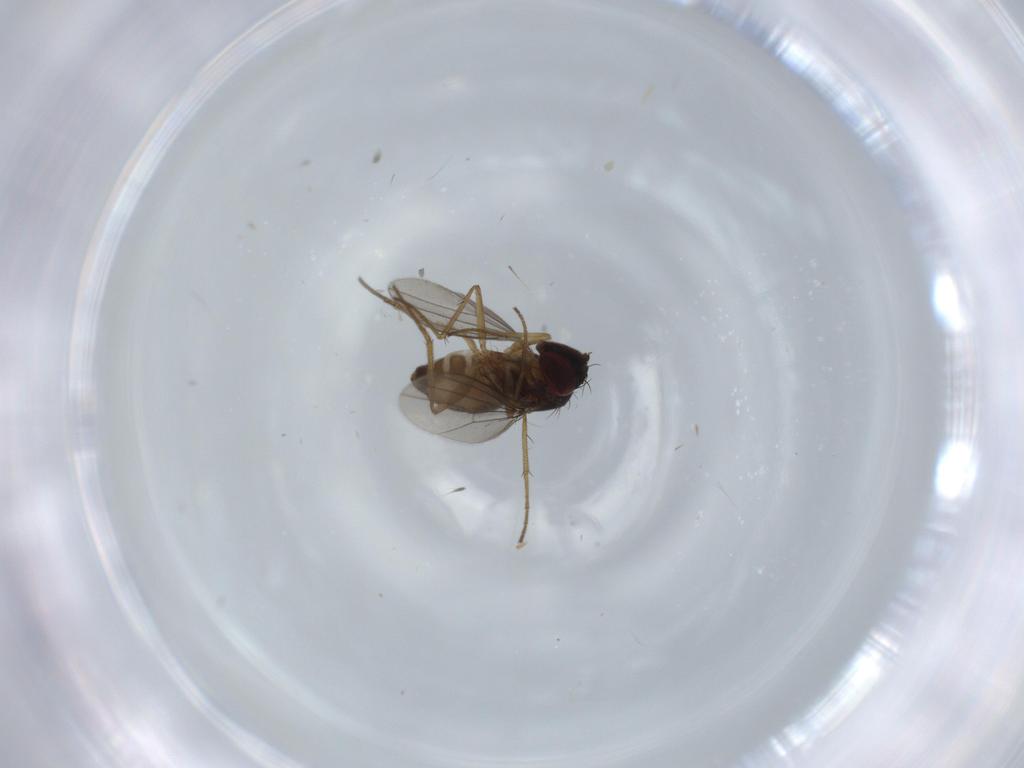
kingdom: Animalia
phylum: Arthropoda
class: Insecta
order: Diptera
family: Dolichopodidae
